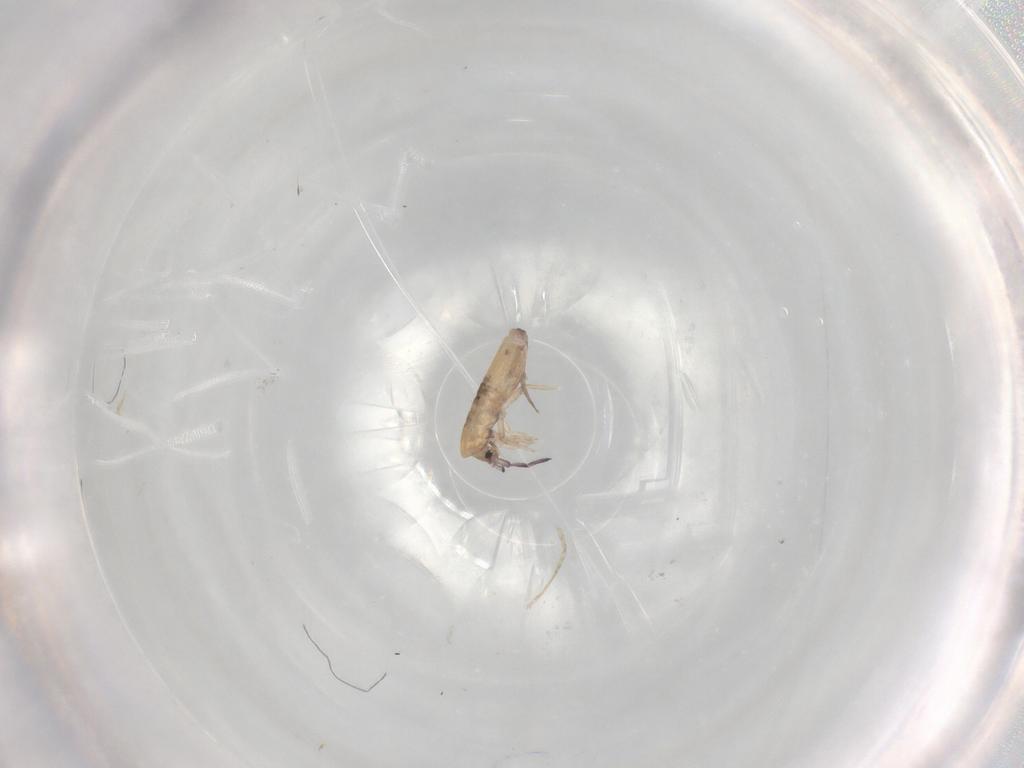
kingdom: Animalia
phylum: Arthropoda
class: Collembola
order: Entomobryomorpha
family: Entomobryidae
